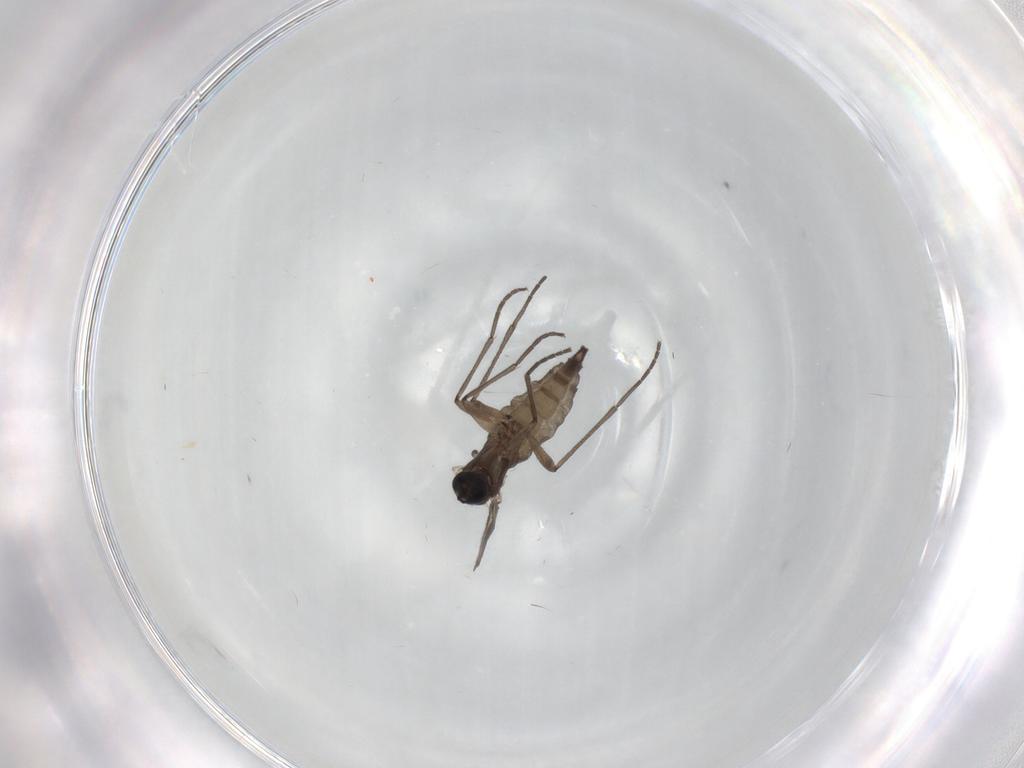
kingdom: Animalia
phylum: Arthropoda
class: Insecta
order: Diptera
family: Sciaridae
